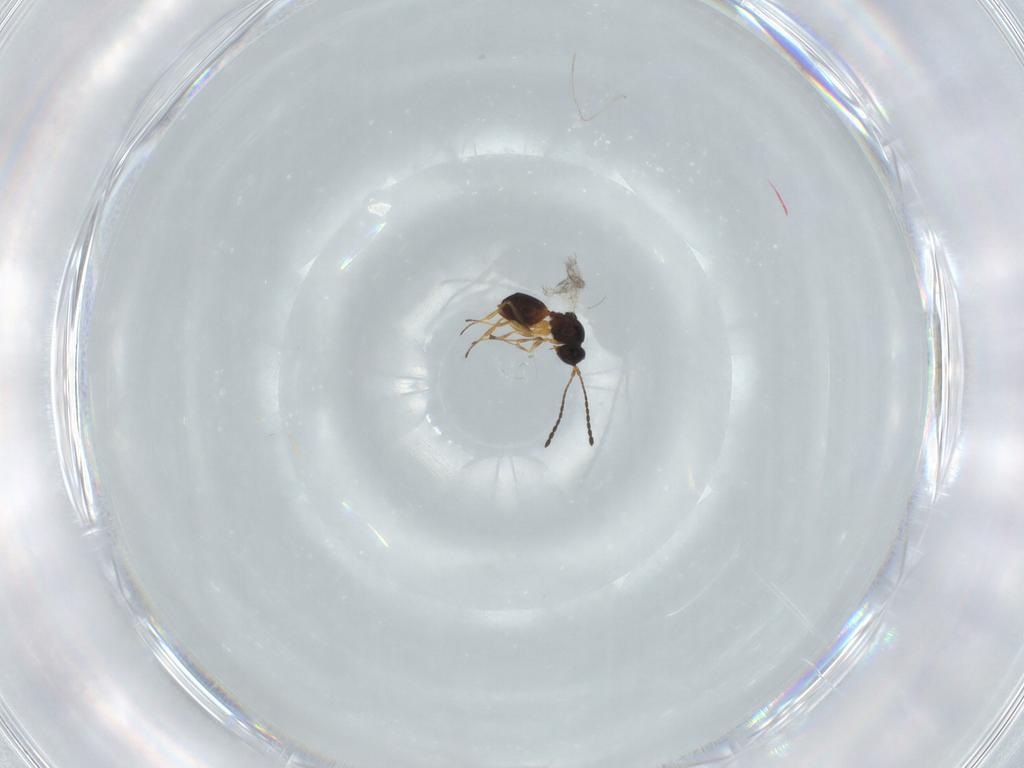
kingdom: Animalia
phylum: Arthropoda
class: Insecta
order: Hymenoptera
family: Figitidae
